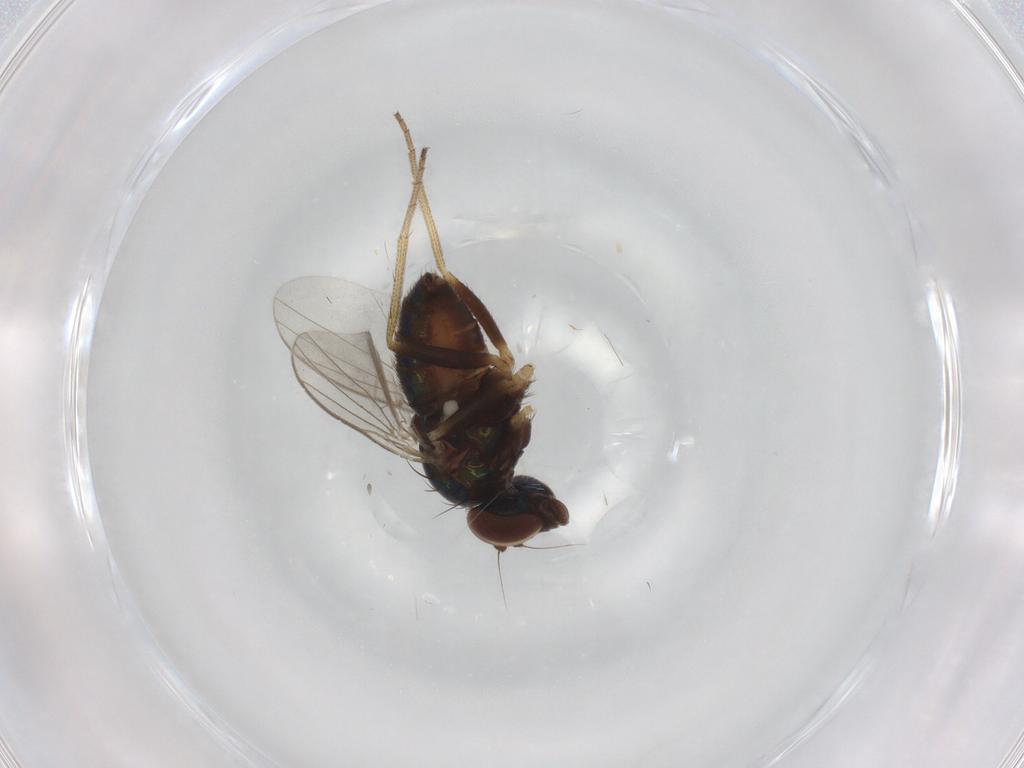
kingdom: Animalia
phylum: Arthropoda
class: Insecta
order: Diptera
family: Dolichopodidae
